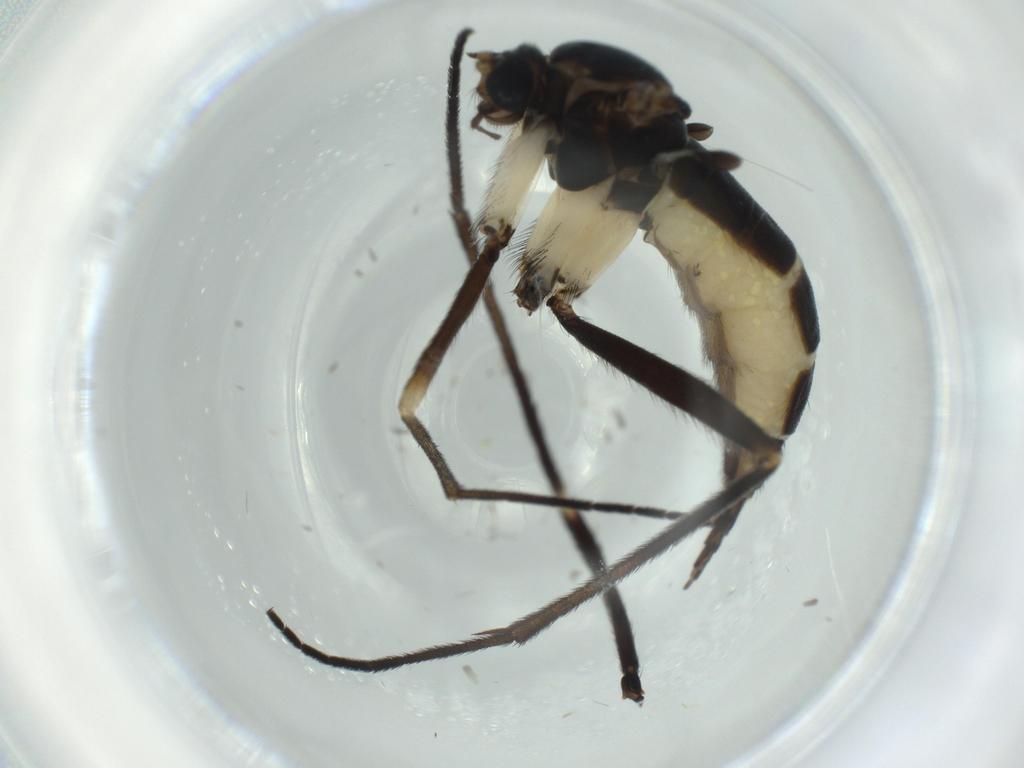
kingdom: Animalia
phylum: Arthropoda
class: Insecta
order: Diptera
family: Sciaridae
